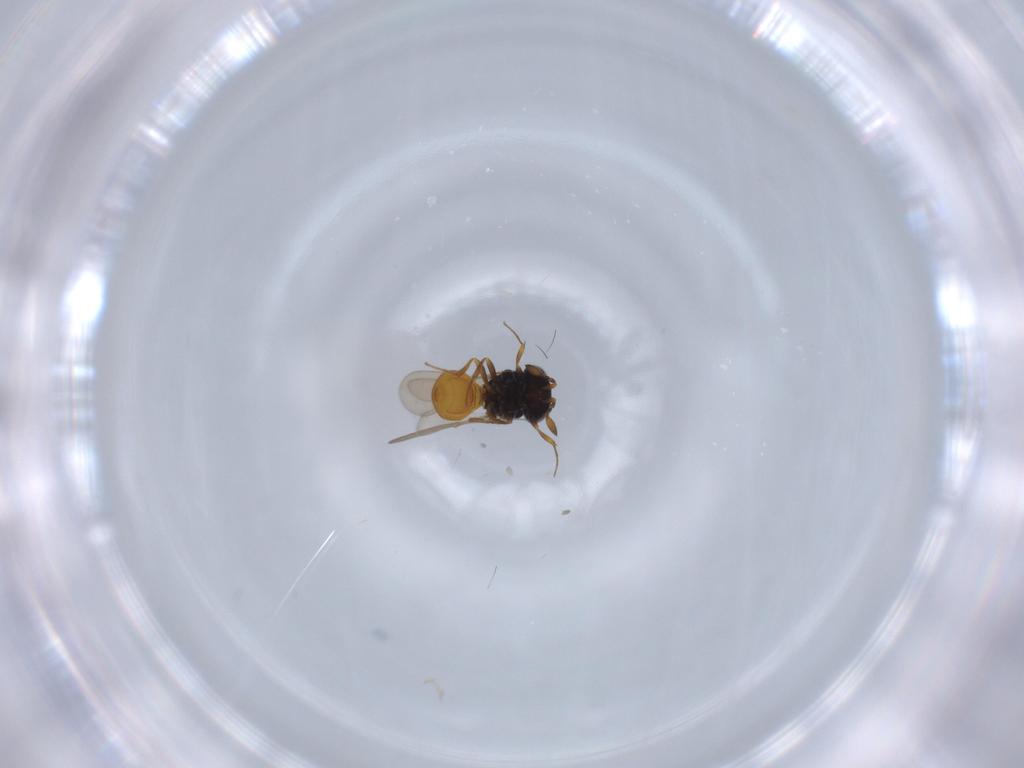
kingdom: Animalia
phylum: Arthropoda
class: Insecta
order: Hymenoptera
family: Scelionidae
